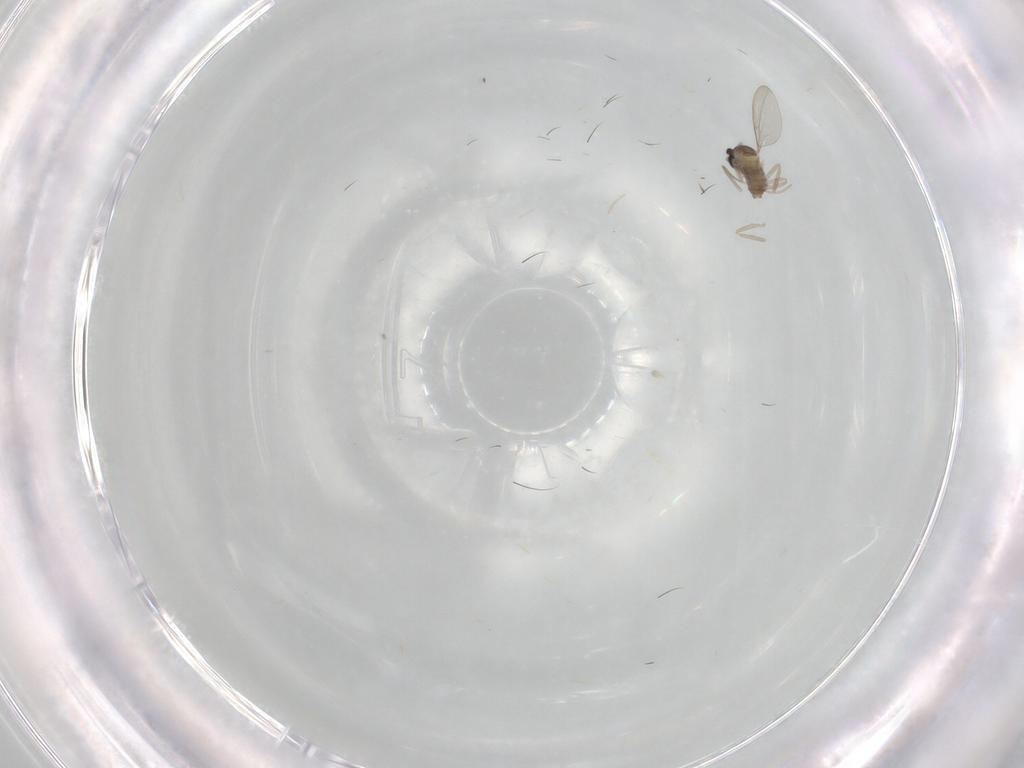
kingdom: Animalia
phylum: Arthropoda
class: Insecta
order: Diptera
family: Cecidomyiidae
